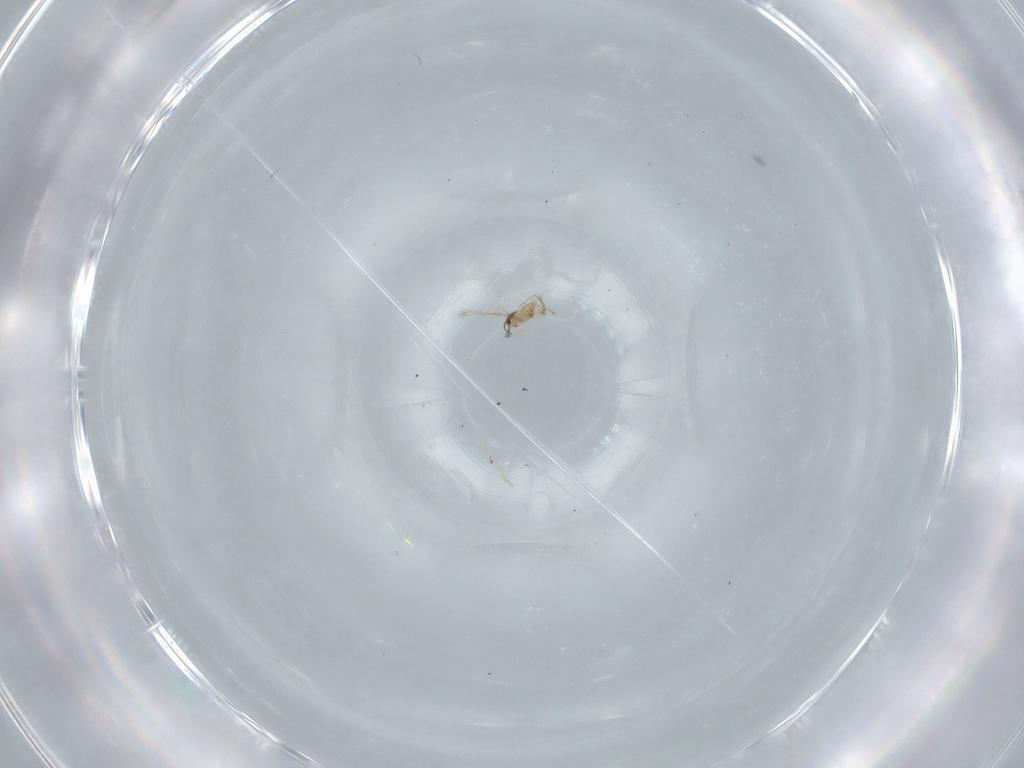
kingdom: Animalia
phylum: Arthropoda
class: Insecta
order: Hymenoptera
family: Mymaridae
